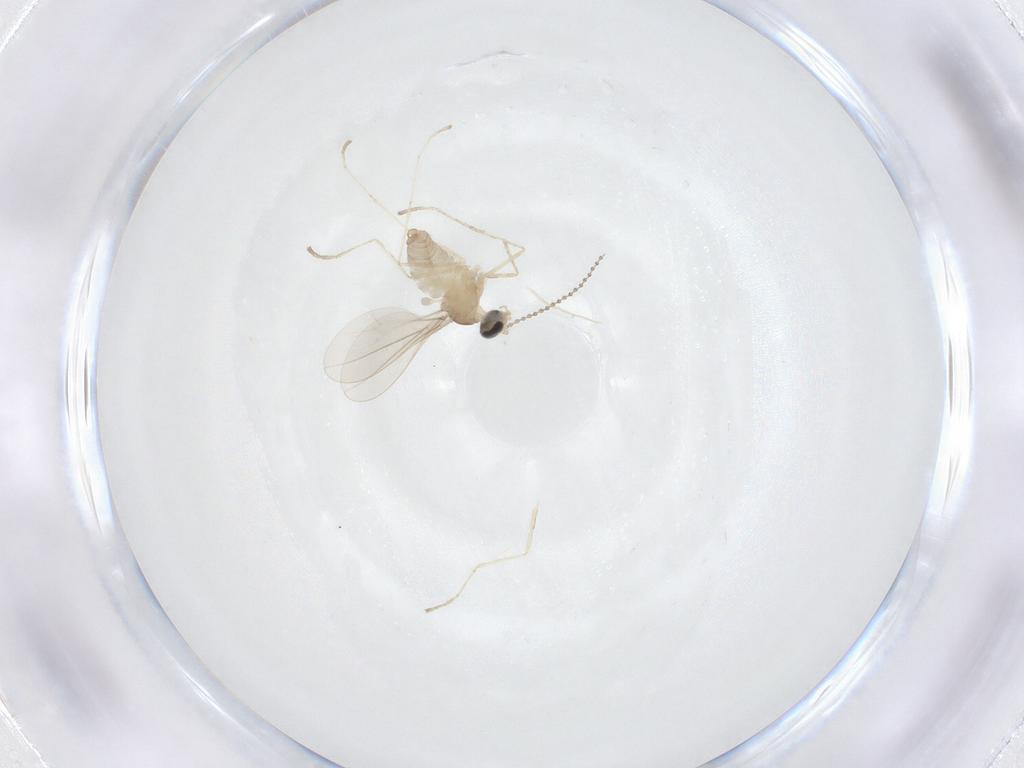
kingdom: Animalia
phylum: Arthropoda
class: Insecta
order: Diptera
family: Cecidomyiidae
